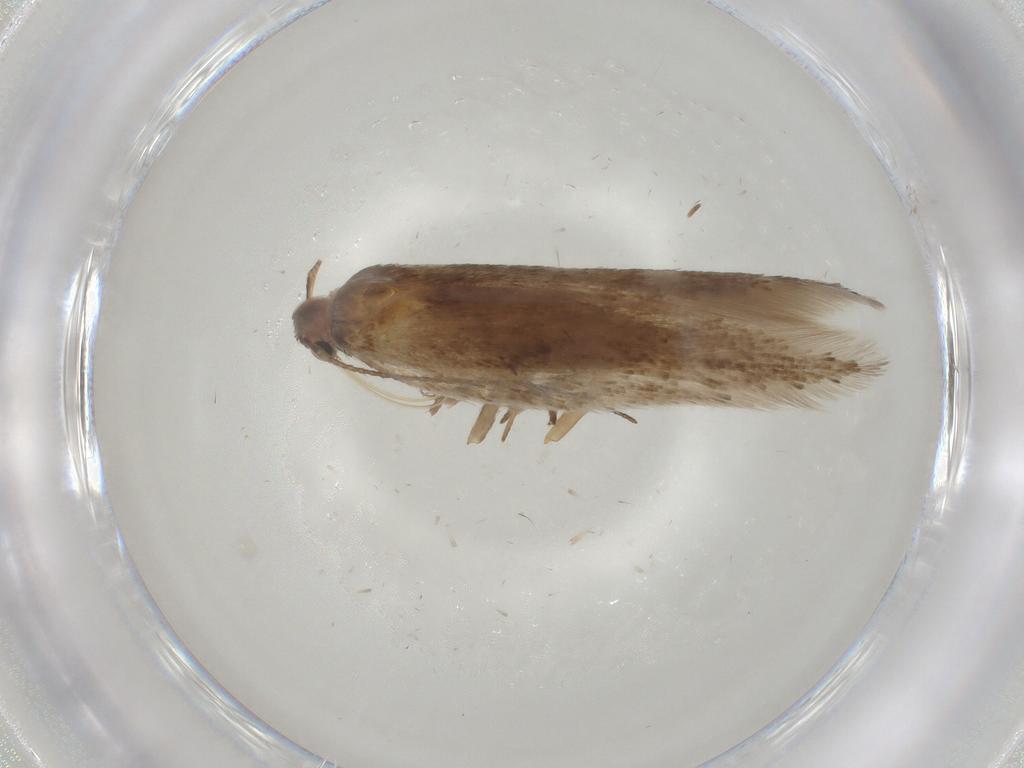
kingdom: Animalia
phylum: Arthropoda
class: Insecta
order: Lepidoptera
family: Gelechiidae
